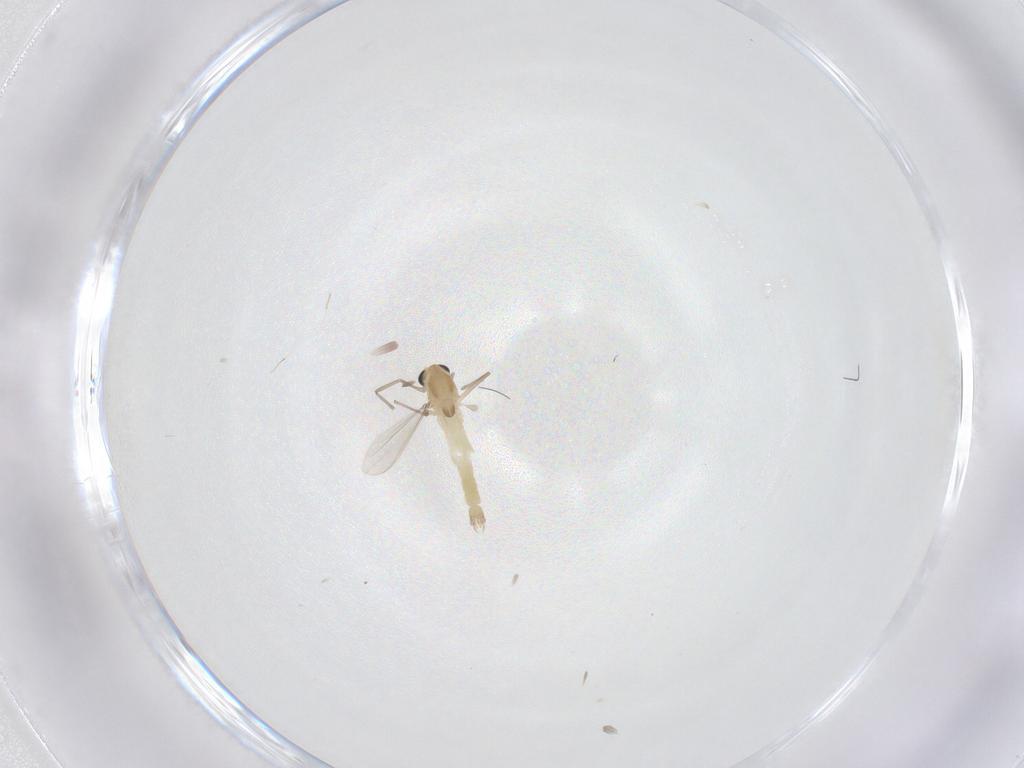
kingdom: Animalia
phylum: Arthropoda
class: Insecta
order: Diptera
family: Chironomidae
